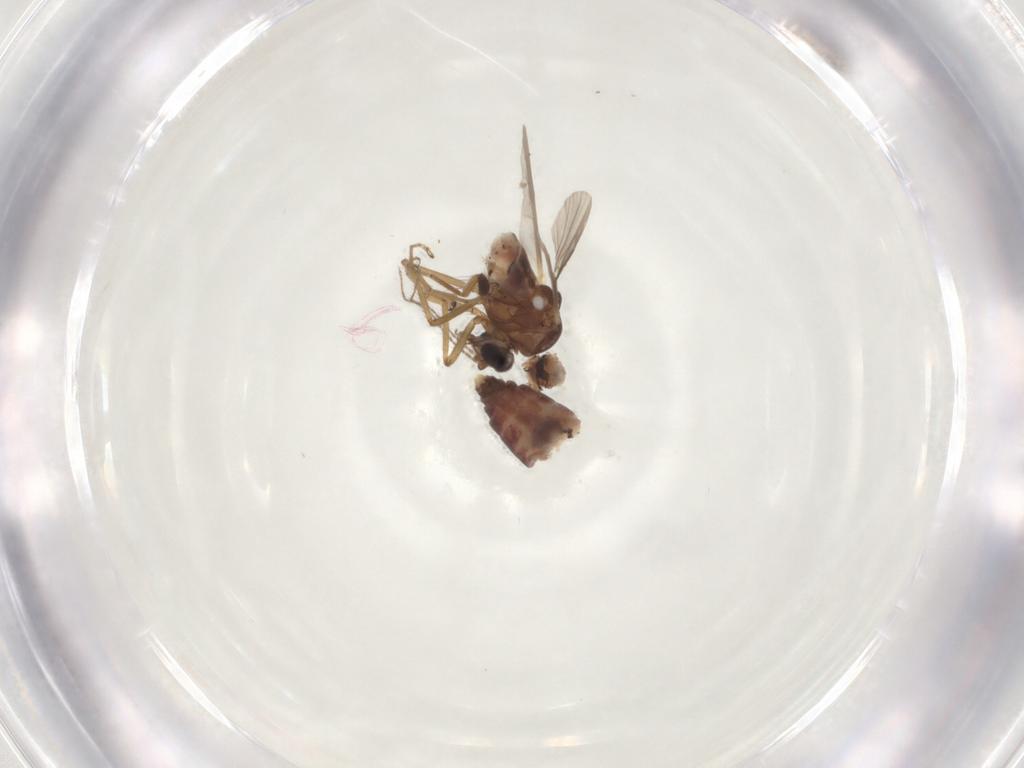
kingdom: Animalia
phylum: Arthropoda
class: Insecta
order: Diptera
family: Ceratopogonidae
